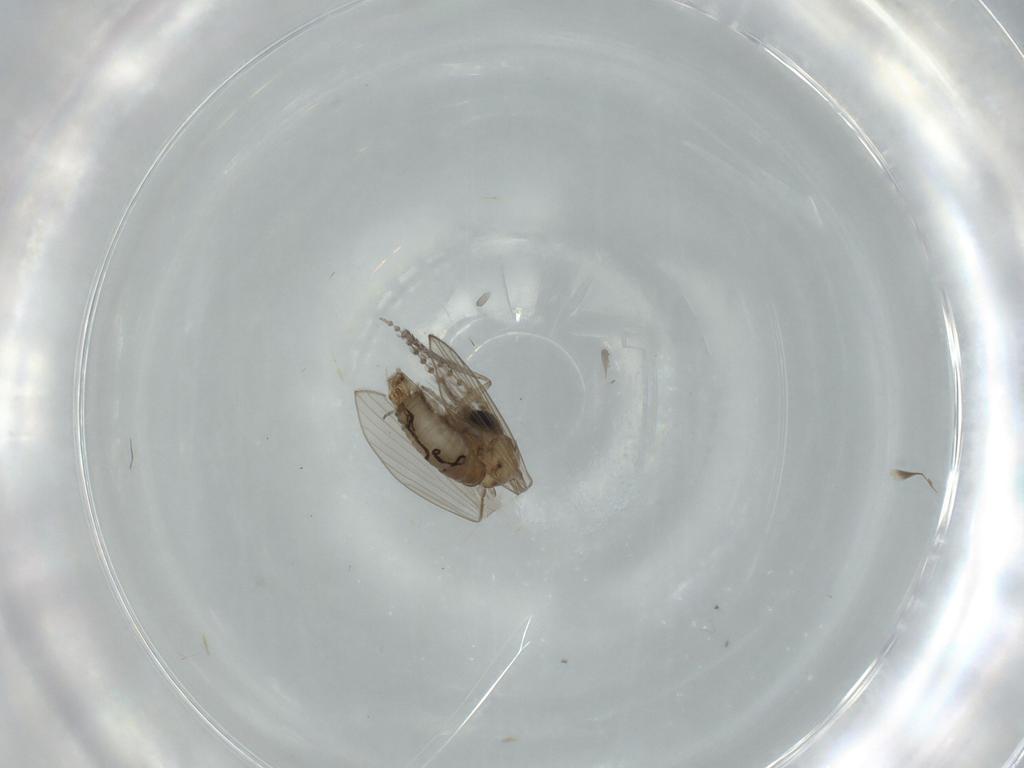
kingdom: Animalia
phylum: Arthropoda
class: Insecta
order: Diptera
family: Psychodidae
